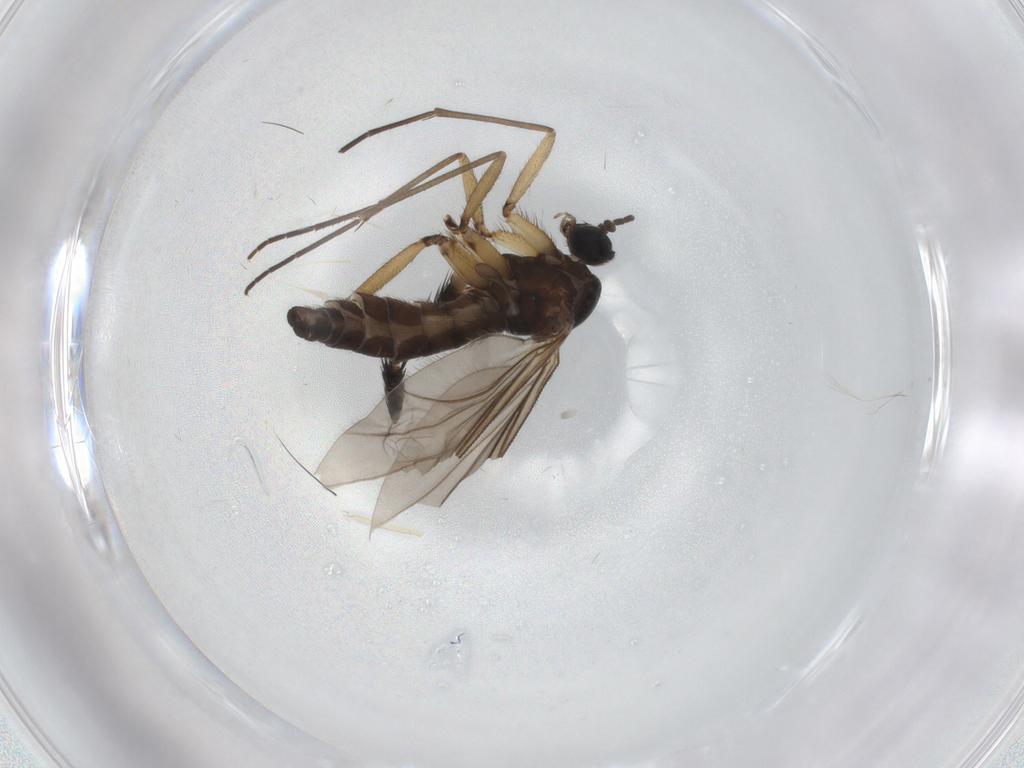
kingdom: Animalia
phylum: Arthropoda
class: Insecta
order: Diptera
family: Sciaridae
